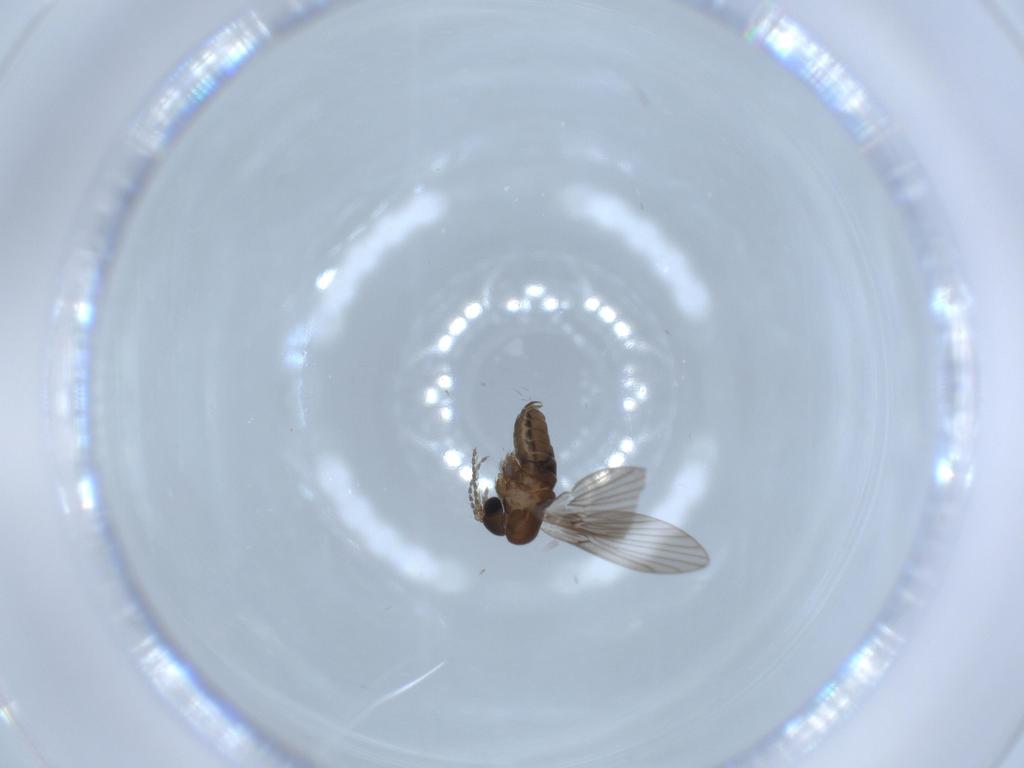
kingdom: Animalia
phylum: Arthropoda
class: Insecta
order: Diptera
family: Psychodidae
